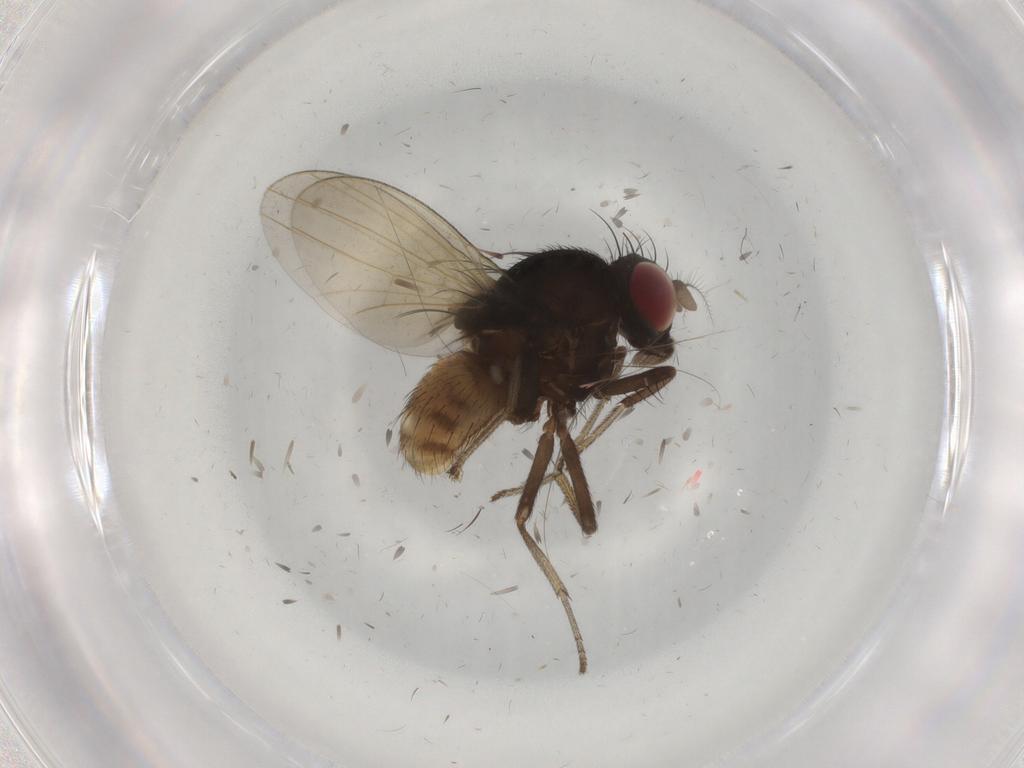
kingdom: Animalia
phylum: Arthropoda
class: Insecta
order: Diptera
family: Lauxaniidae
